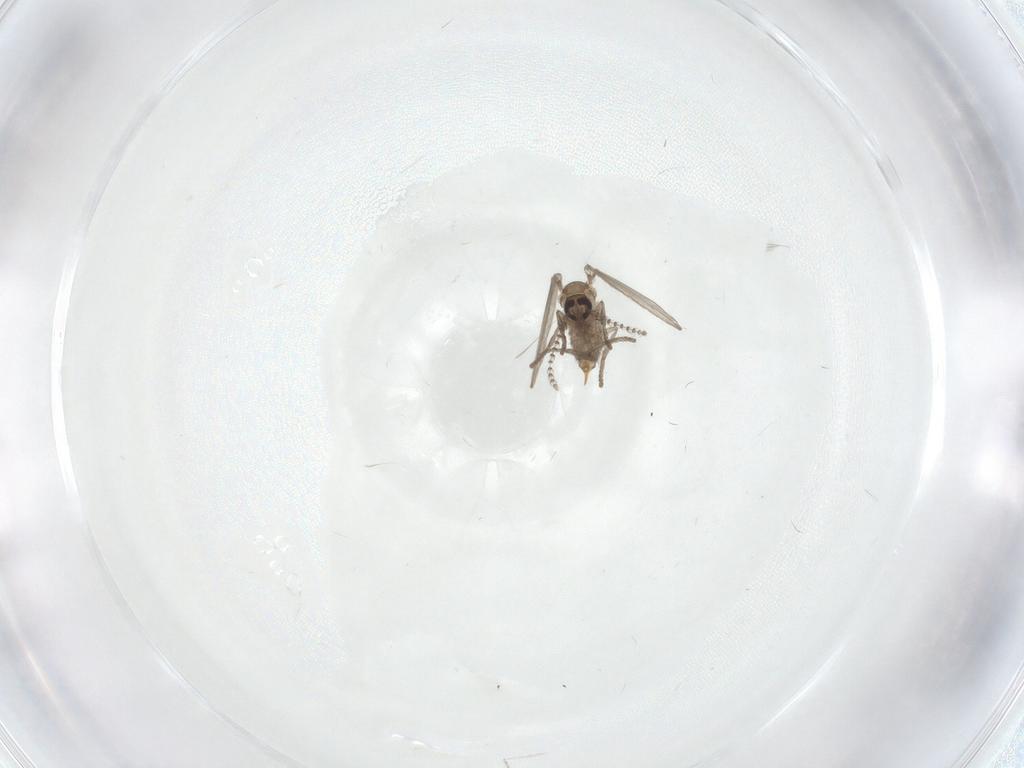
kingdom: Animalia
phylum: Arthropoda
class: Insecta
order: Diptera
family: Cecidomyiidae
